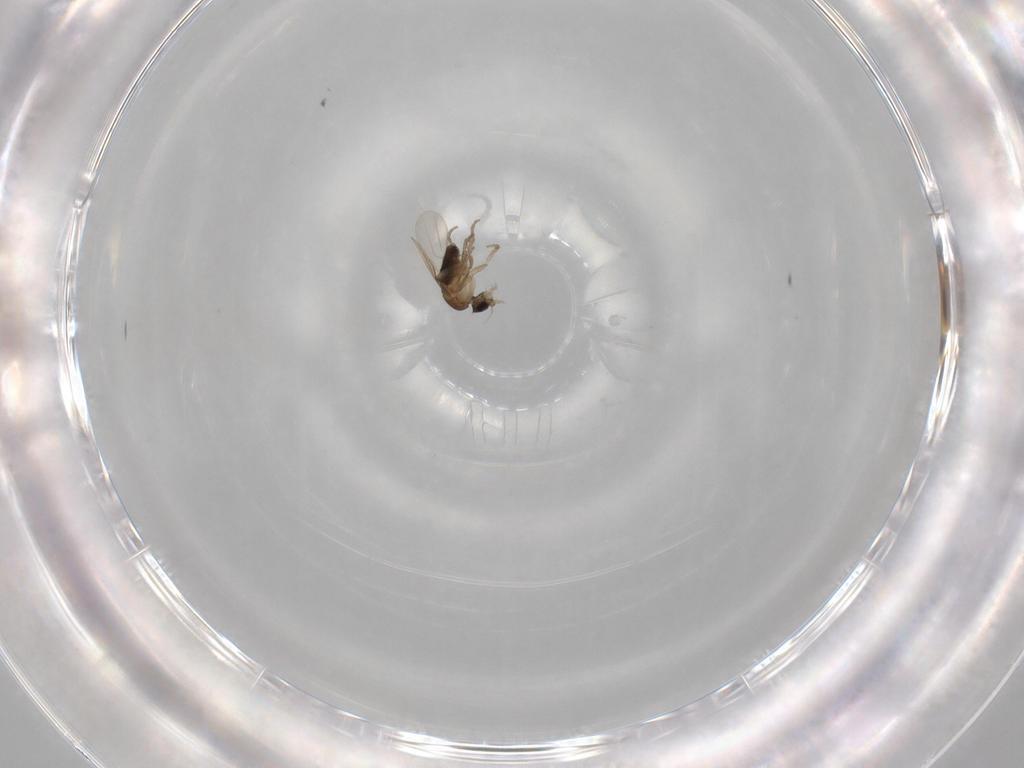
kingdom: Animalia
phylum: Arthropoda
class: Insecta
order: Diptera
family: Phoridae
